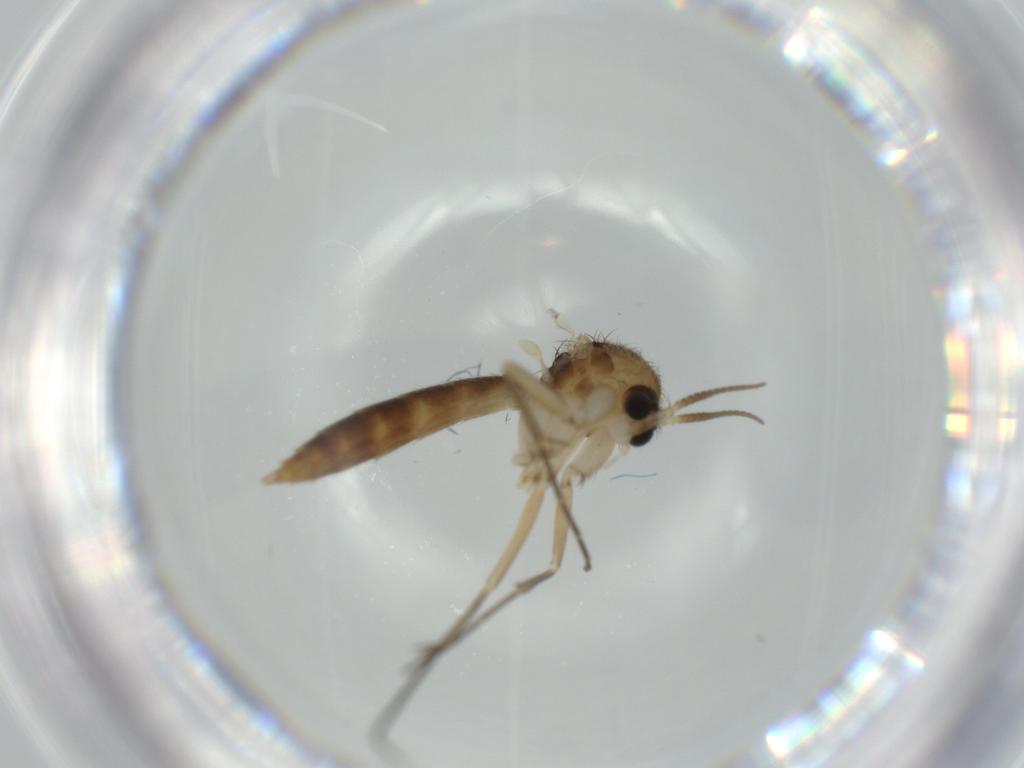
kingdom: Animalia
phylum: Arthropoda
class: Insecta
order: Diptera
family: Mycetophilidae
